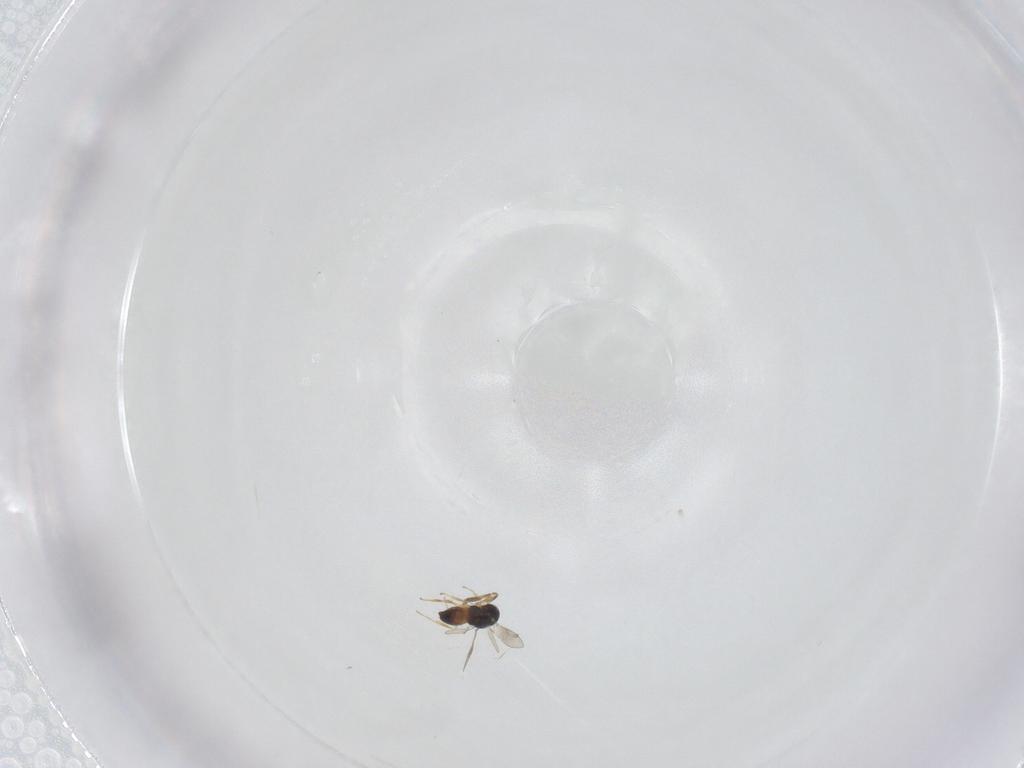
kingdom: Animalia
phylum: Arthropoda
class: Insecta
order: Hymenoptera
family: Scelionidae
